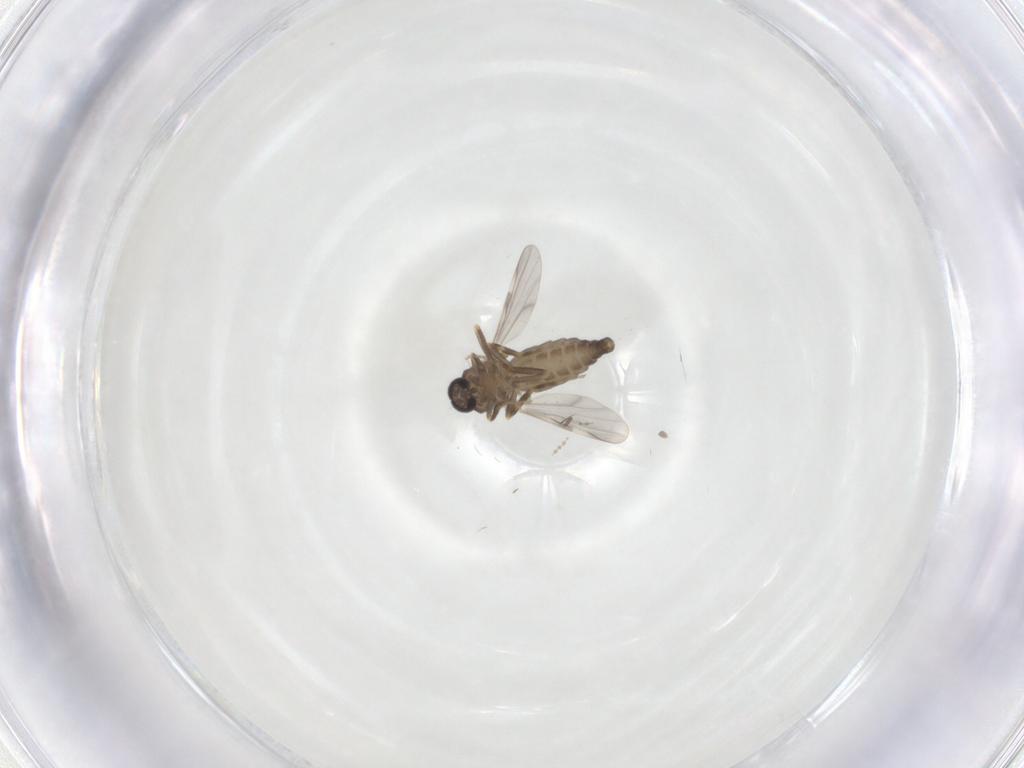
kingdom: Animalia
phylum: Arthropoda
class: Insecta
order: Diptera
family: Ceratopogonidae
